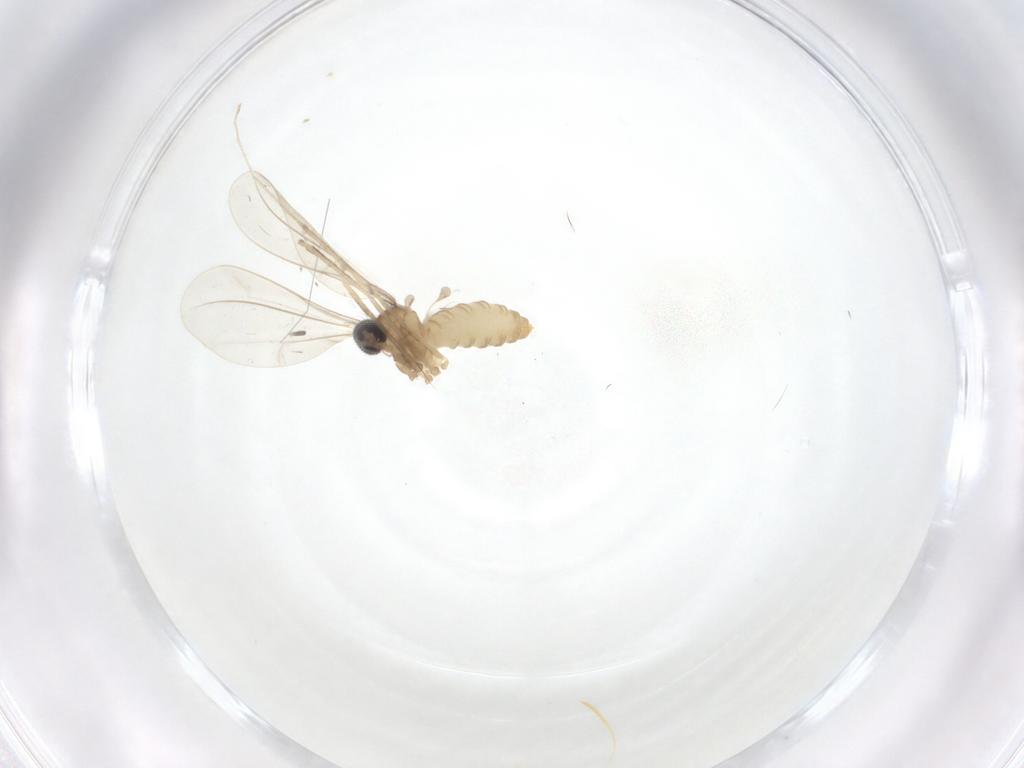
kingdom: Animalia
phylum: Arthropoda
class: Insecta
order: Diptera
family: Cecidomyiidae
